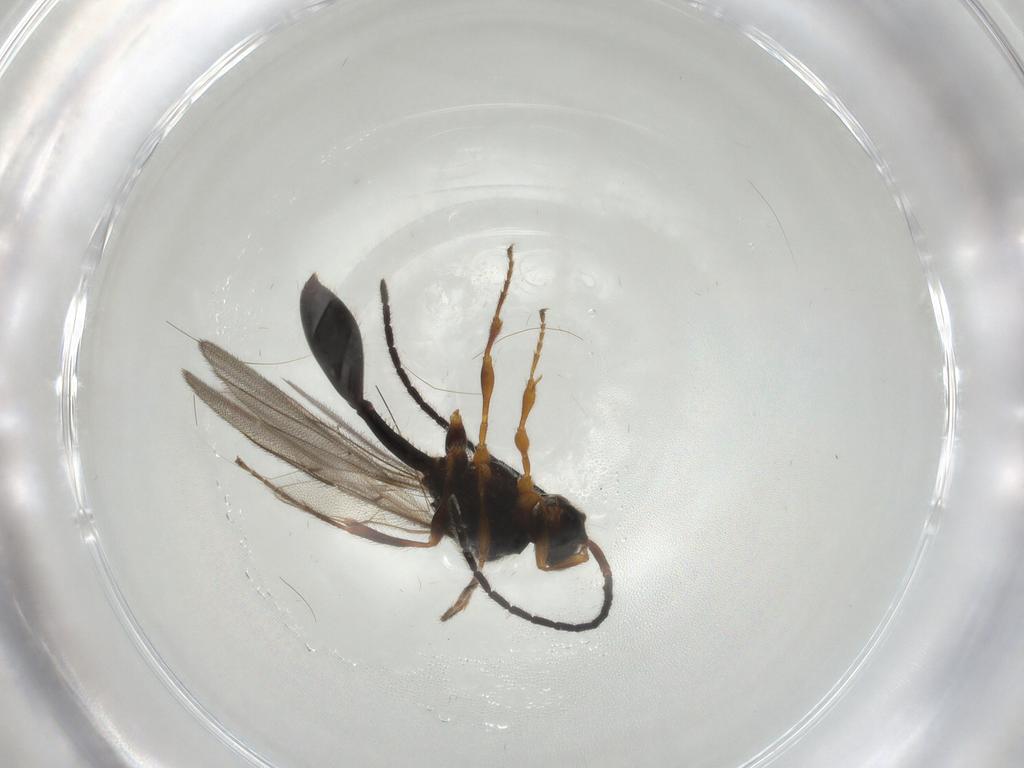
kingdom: Animalia
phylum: Arthropoda
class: Insecta
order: Hymenoptera
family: Diapriidae
